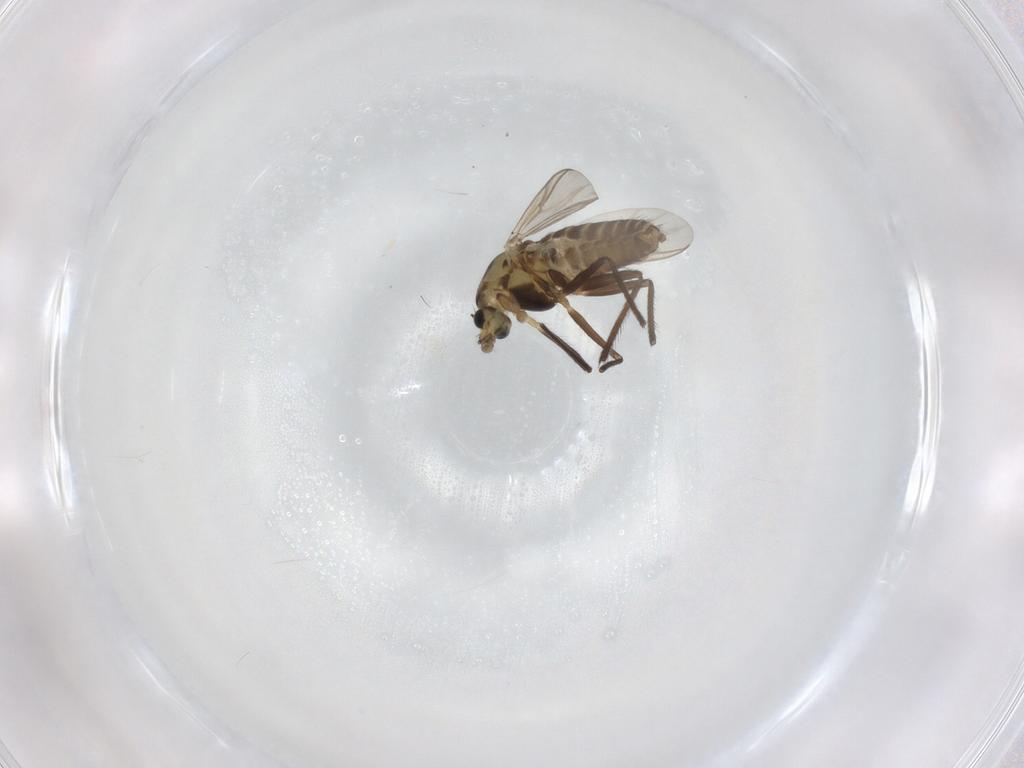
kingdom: Animalia
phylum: Arthropoda
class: Insecta
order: Diptera
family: Chironomidae
